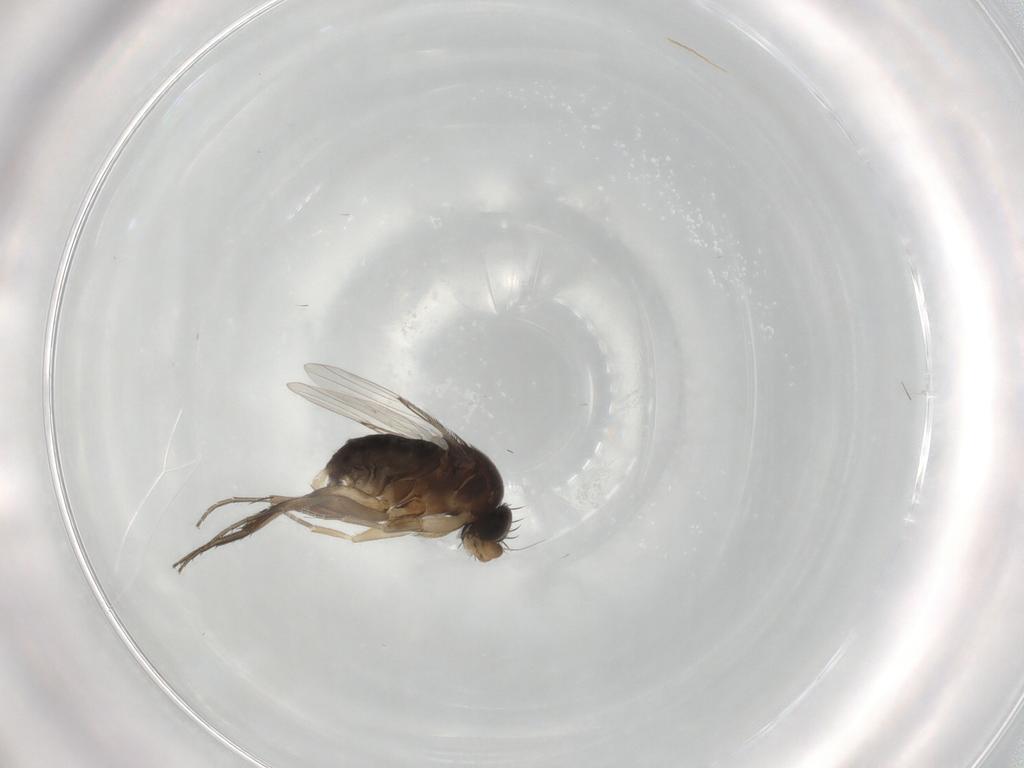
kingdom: Animalia
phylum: Arthropoda
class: Insecta
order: Diptera
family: Phoridae
